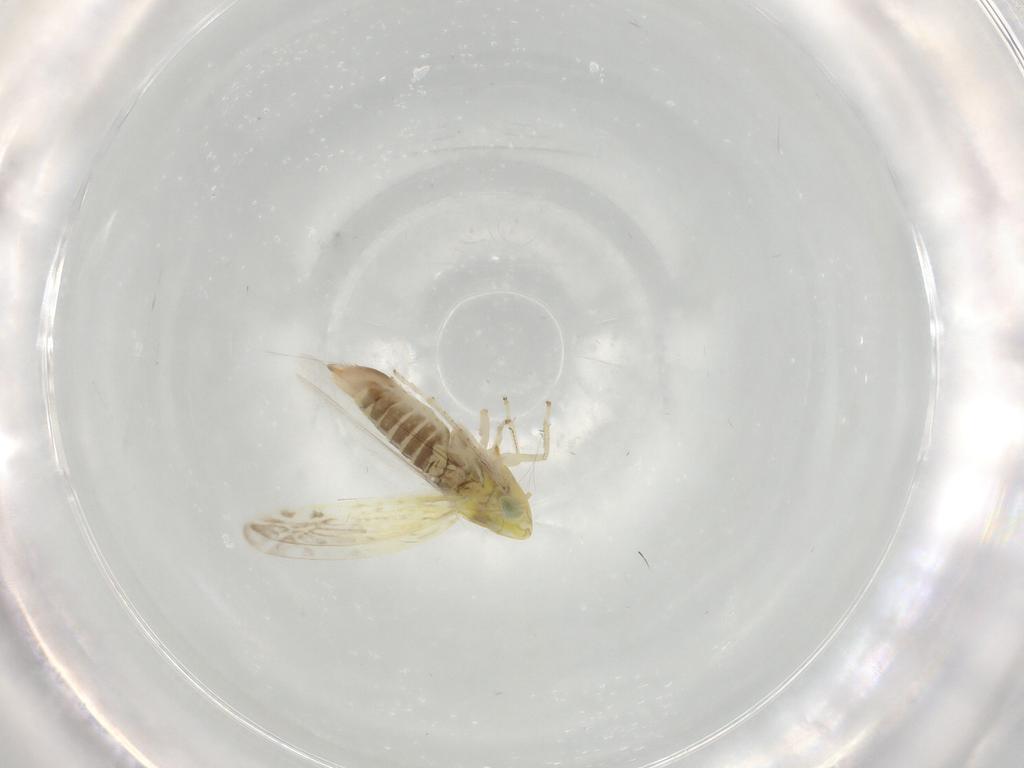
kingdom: Animalia
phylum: Arthropoda
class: Insecta
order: Hemiptera
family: Cicadellidae
